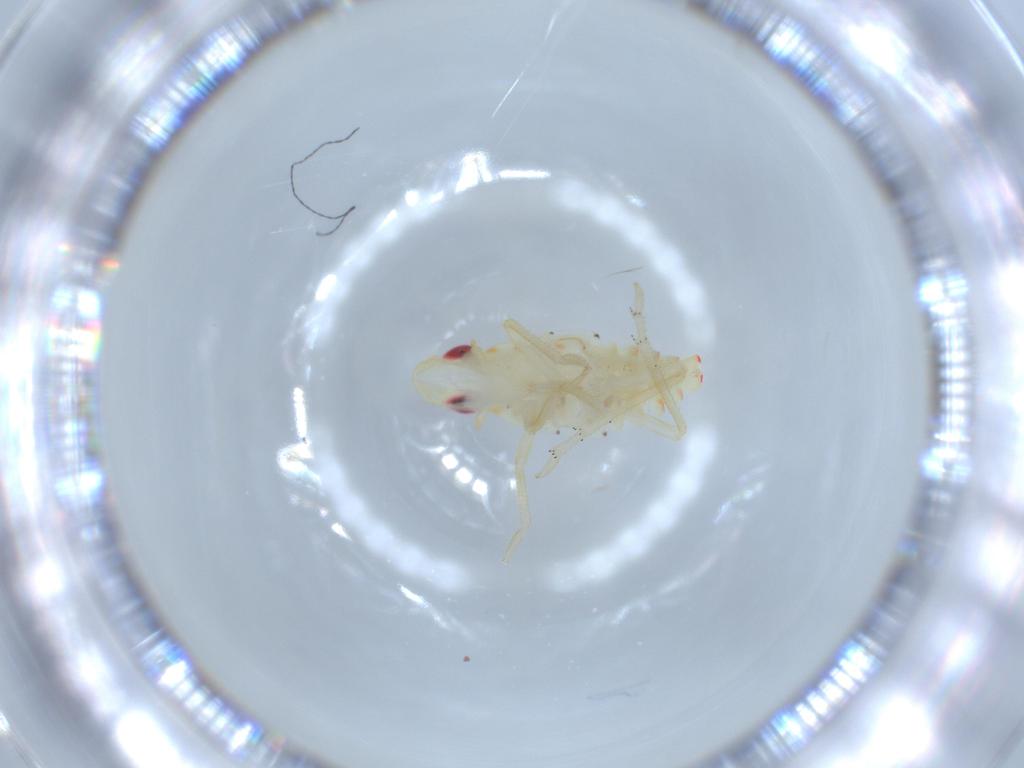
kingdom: Animalia
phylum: Arthropoda
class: Insecta
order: Hemiptera
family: Tropiduchidae
